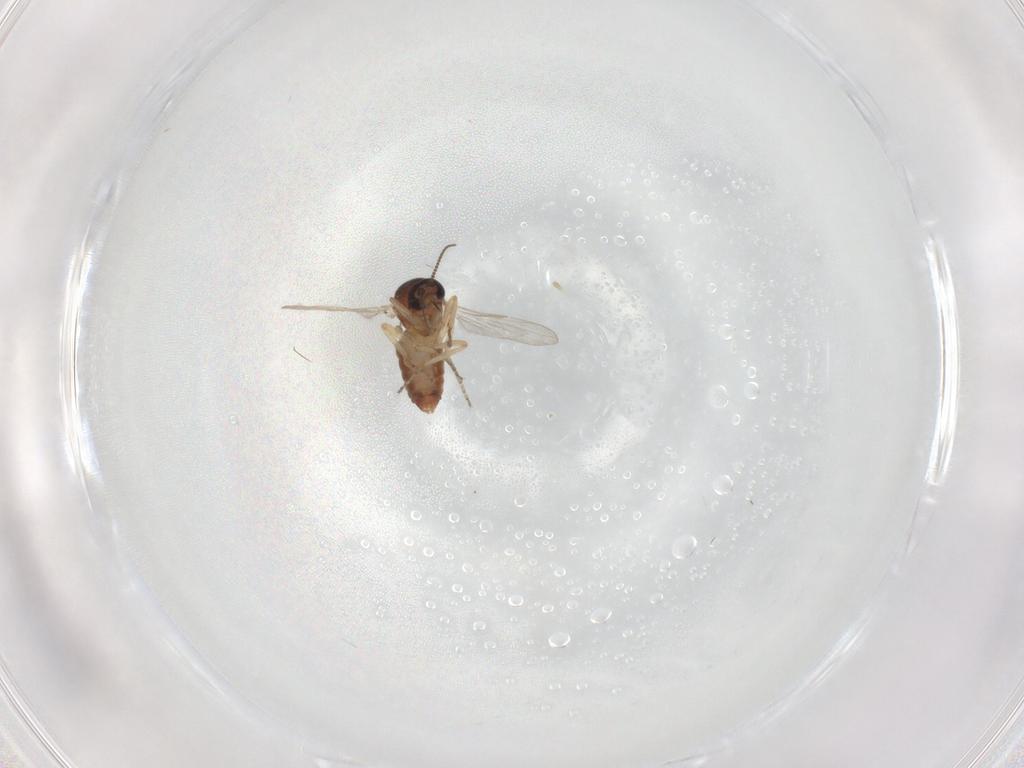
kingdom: Animalia
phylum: Arthropoda
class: Insecta
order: Diptera
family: Ceratopogonidae
